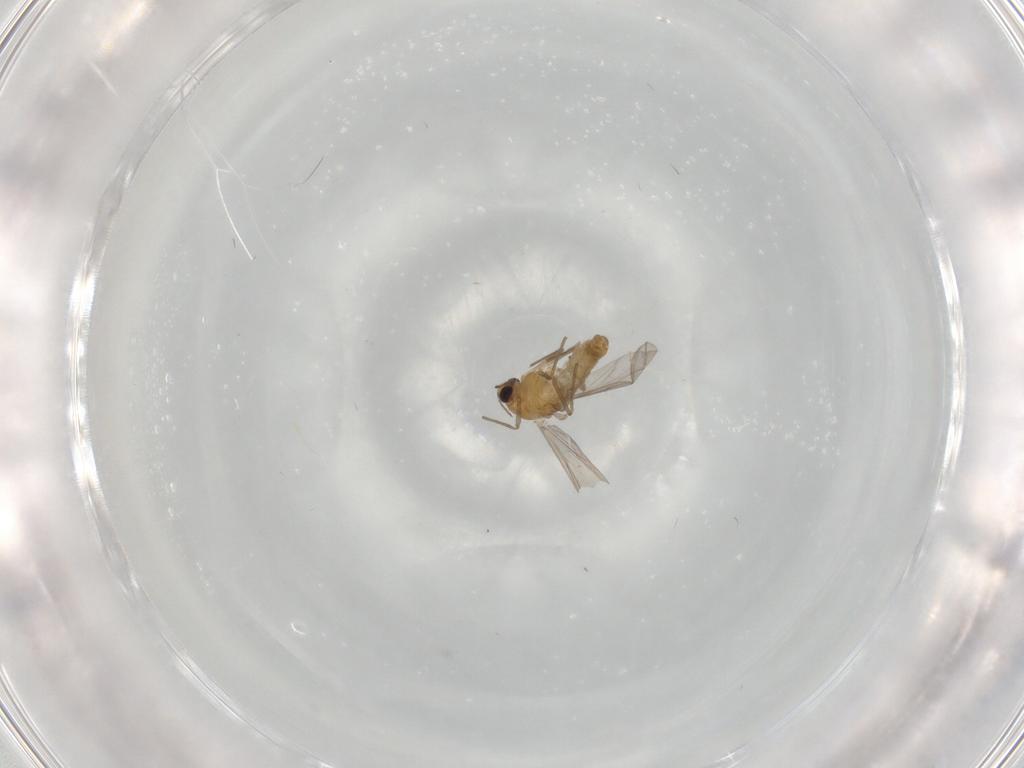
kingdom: Animalia
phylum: Arthropoda
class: Insecta
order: Diptera
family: Chironomidae
